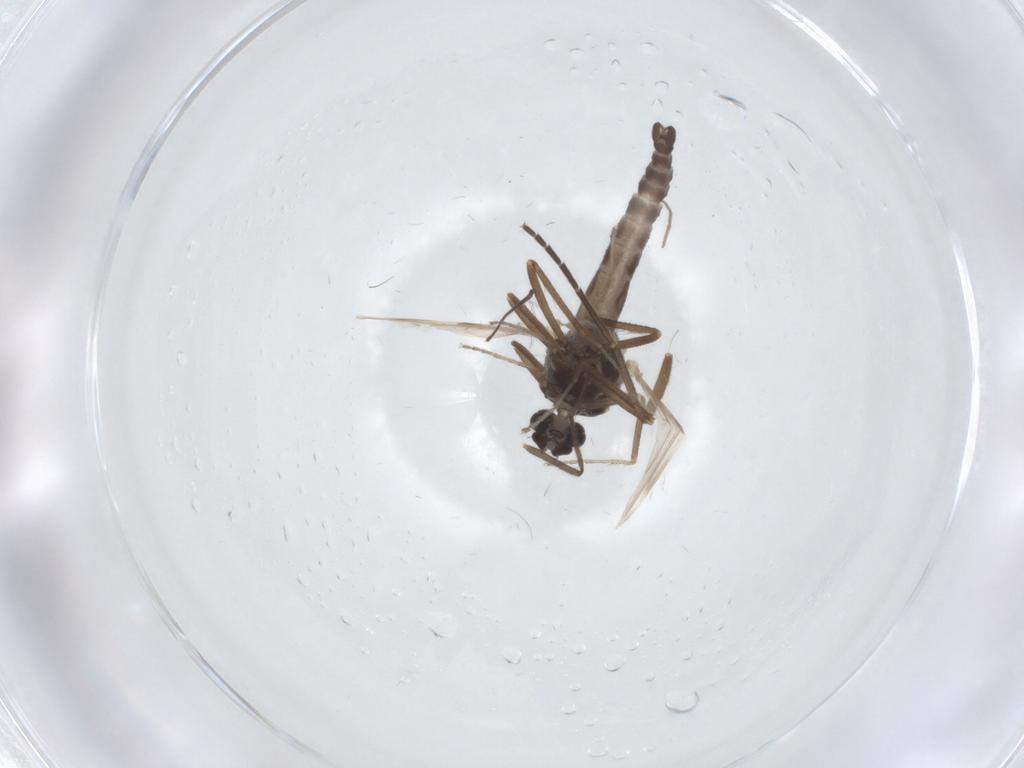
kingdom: Animalia
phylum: Arthropoda
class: Insecta
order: Diptera
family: Ceratopogonidae
